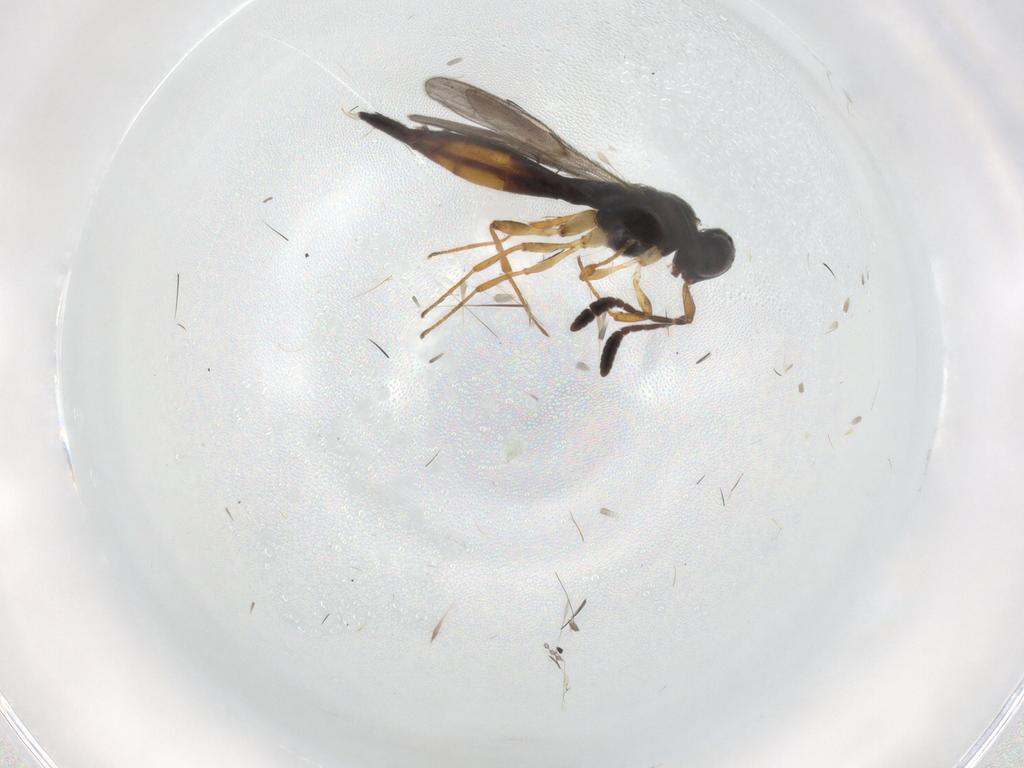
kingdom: Animalia
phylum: Arthropoda
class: Insecta
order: Hymenoptera
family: Scelionidae
